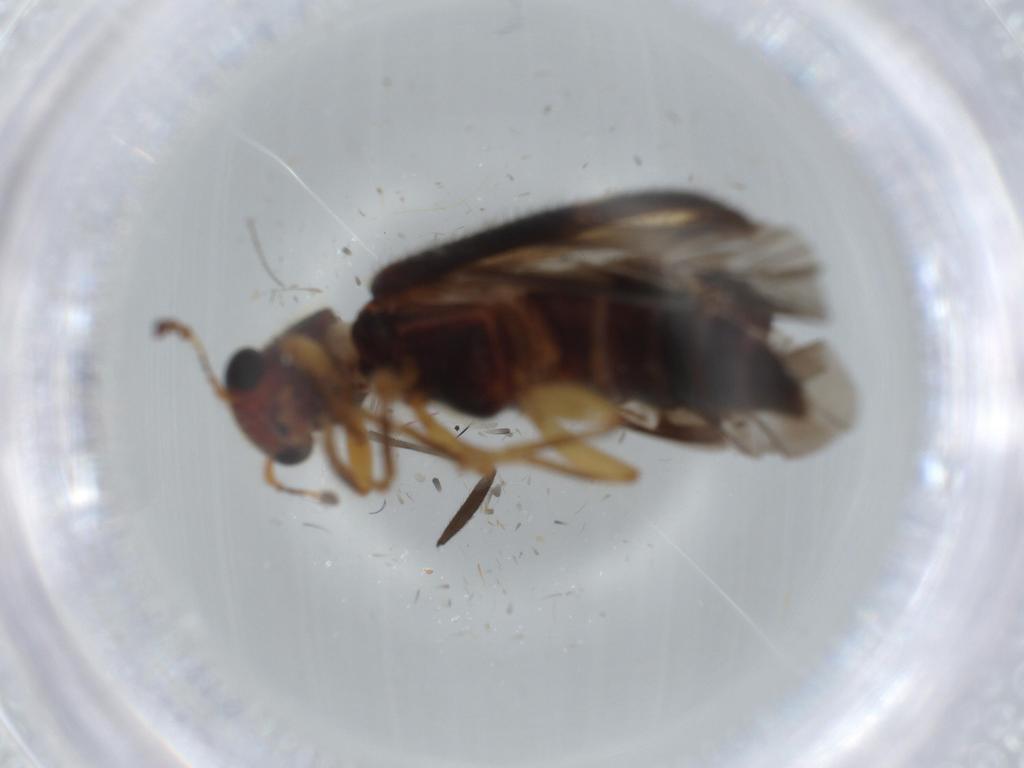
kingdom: Animalia
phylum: Arthropoda
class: Insecta
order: Coleoptera
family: Cleridae
